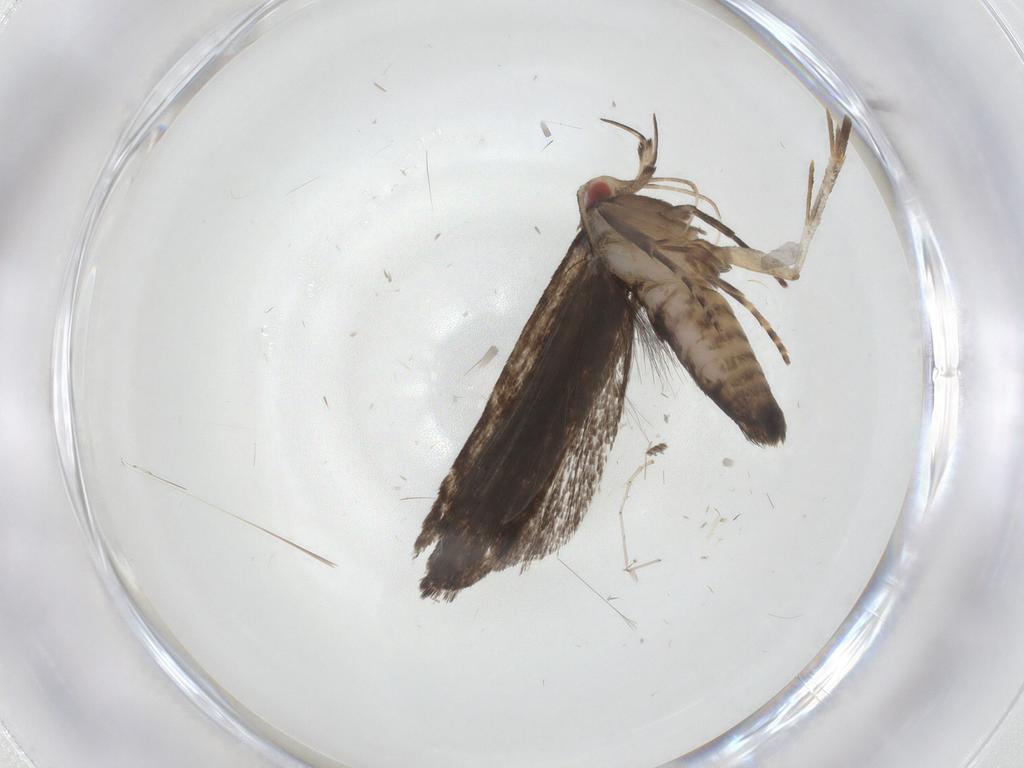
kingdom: Animalia
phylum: Arthropoda
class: Insecta
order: Lepidoptera
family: Gelechiidae
